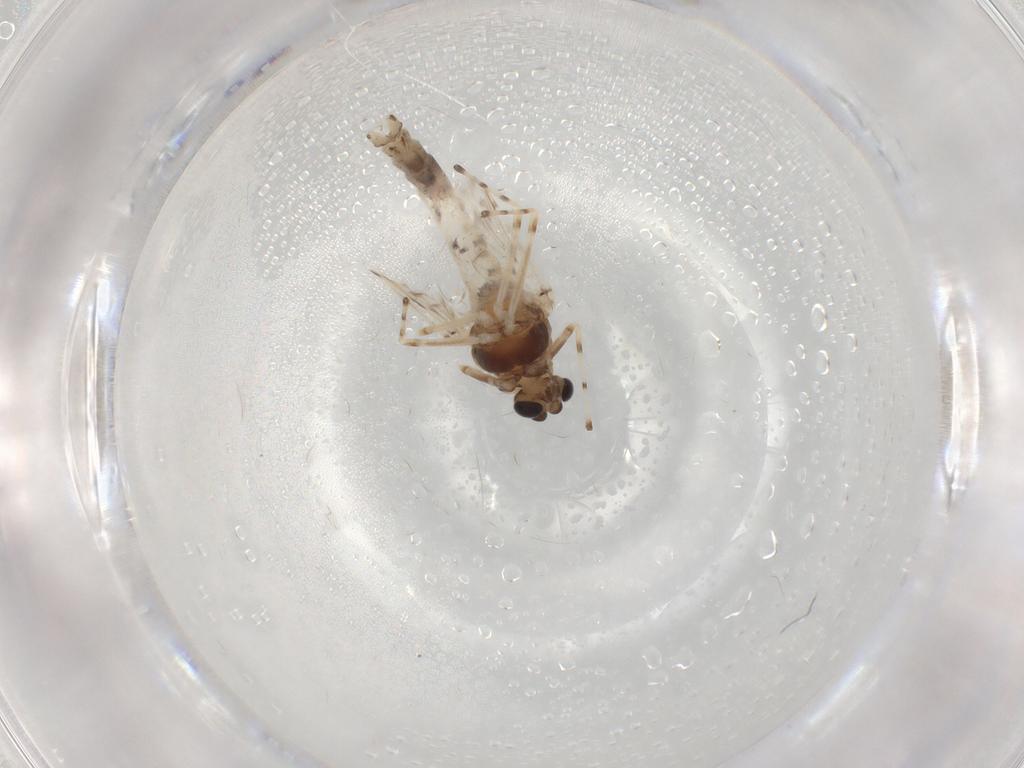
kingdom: Animalia
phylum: Arthropoda
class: Insecta
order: Diptera
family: Chironomidae
